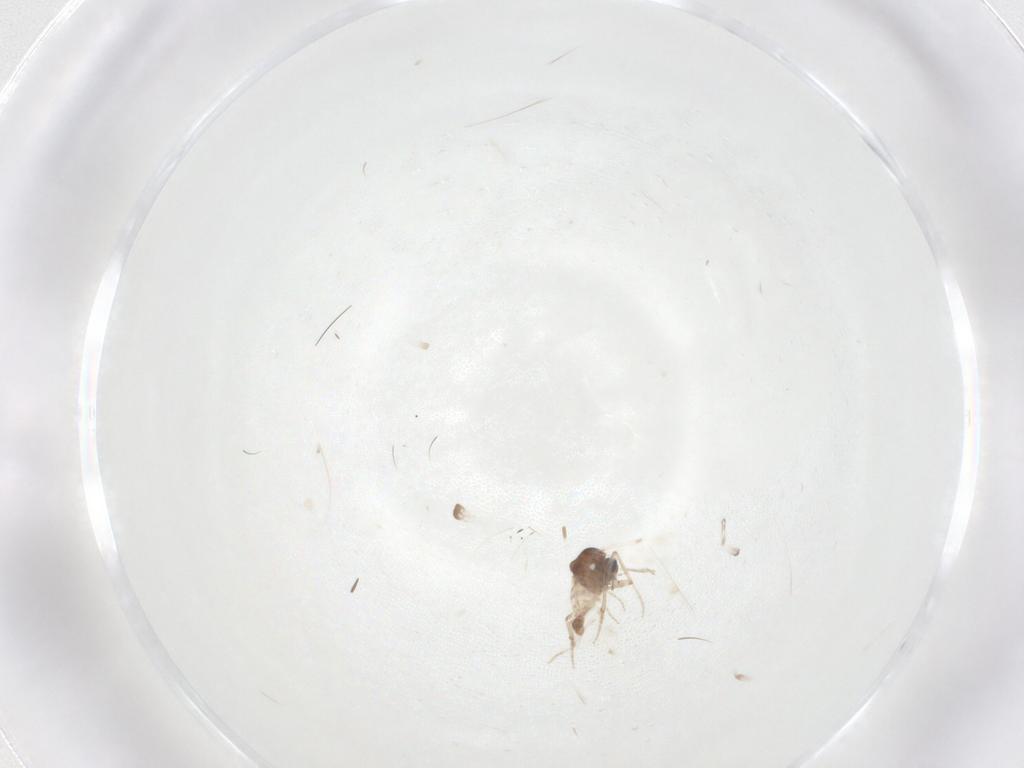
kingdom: Animalia
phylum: Arthropoda
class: Insecta
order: Diptera
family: Ceratopogonidae
